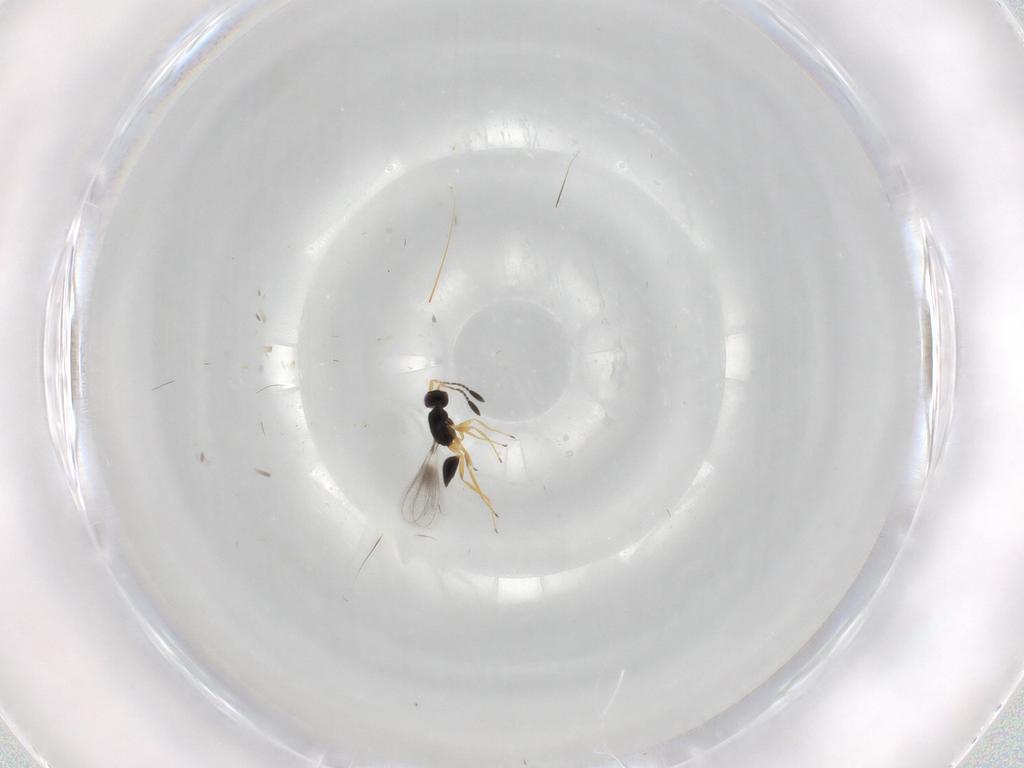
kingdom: Animalia
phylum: Arthropoda
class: Insecta
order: Hymenoptera
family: Mymaridae
